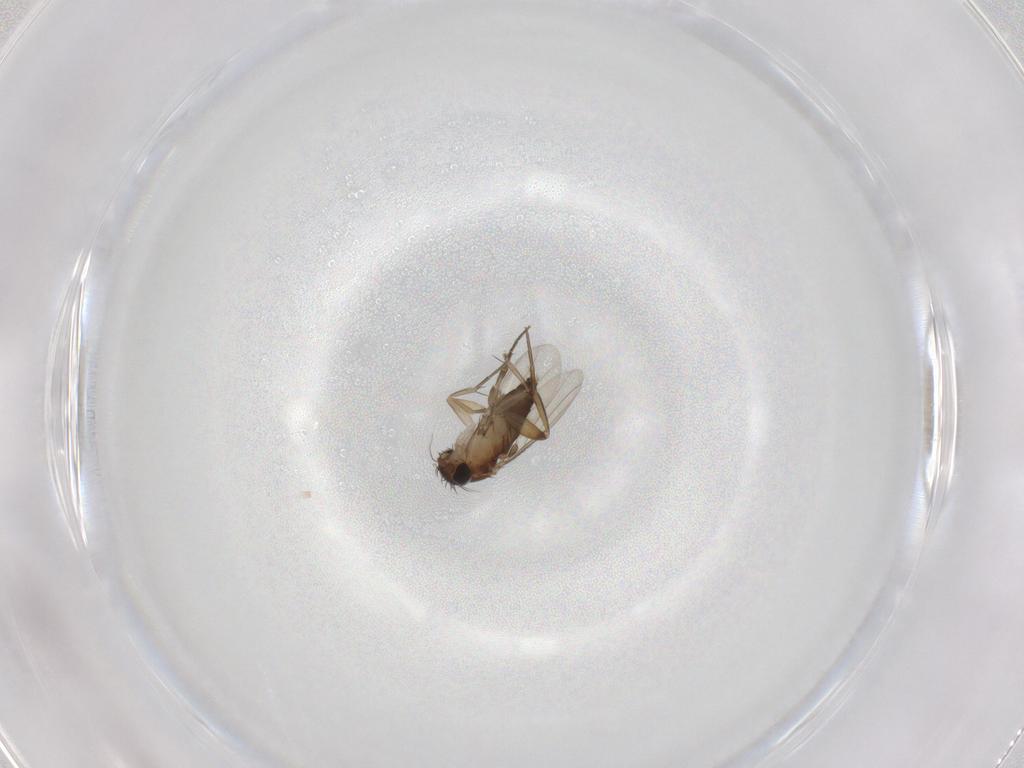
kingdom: Animalia
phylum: Arthropoda
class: Insecta
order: Diptera
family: Phoridae
